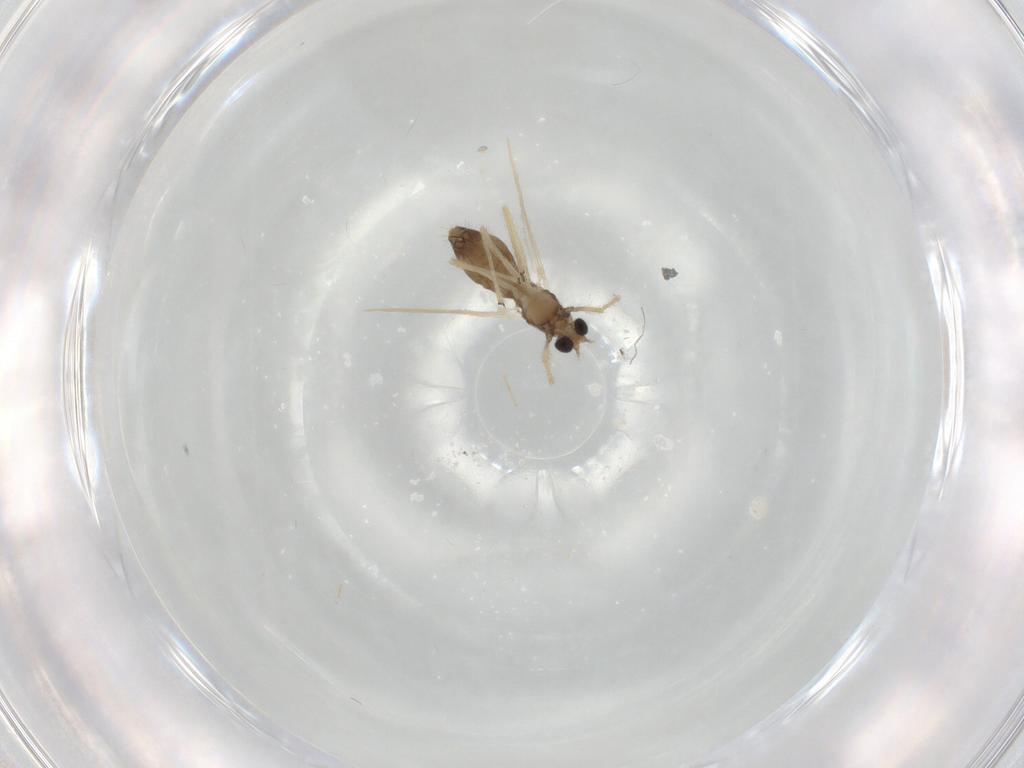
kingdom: Animalia
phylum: Arthropoda
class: Insecta
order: Diptera
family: Chironomidae
